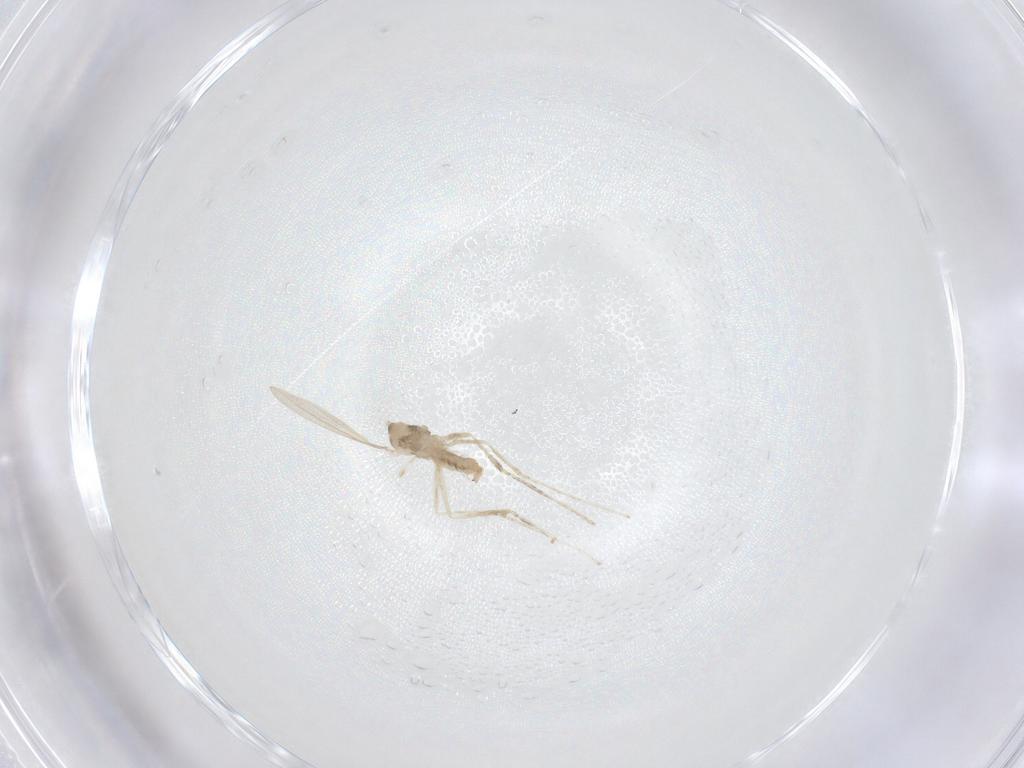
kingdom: Animalia
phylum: Arthropoda
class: Insecta
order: Diptera
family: Cecidomyiidae
